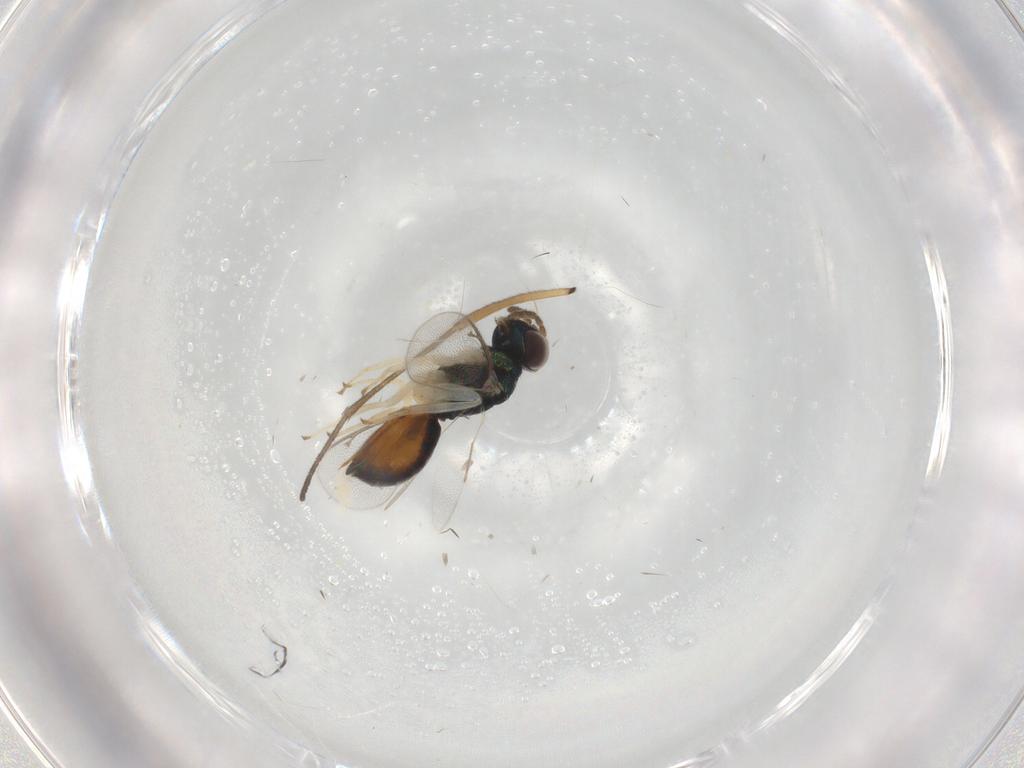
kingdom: Animalia
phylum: Arthropoda
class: Insecta
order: Hymenoptera
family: Eulophidae
